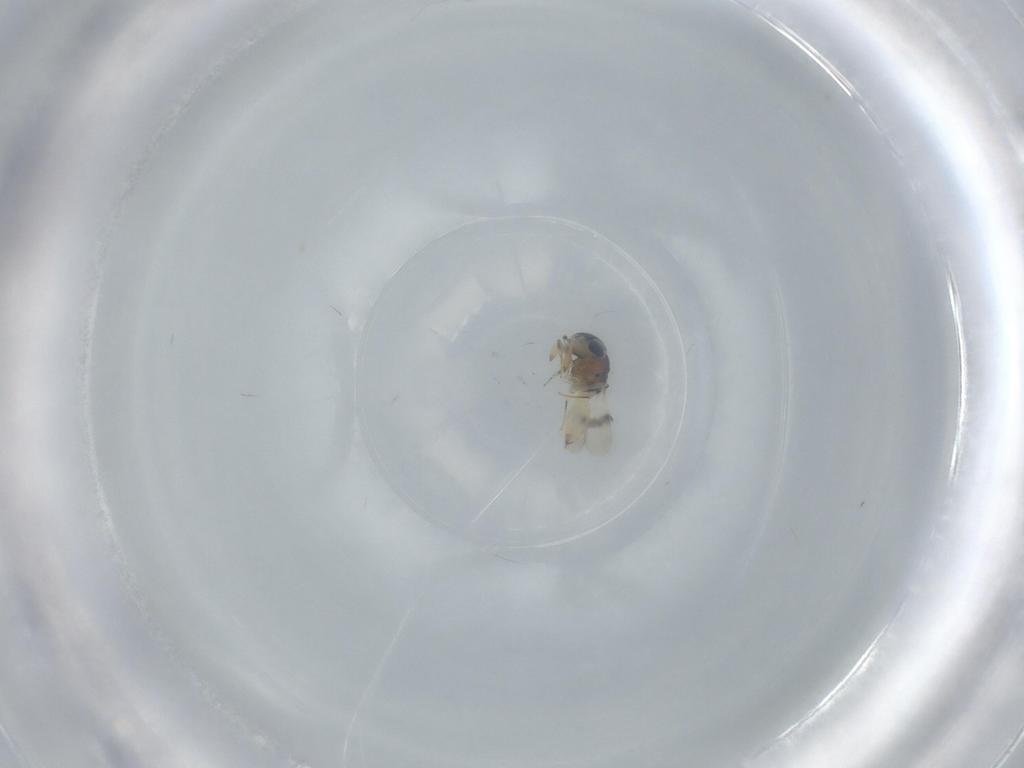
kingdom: Animalia
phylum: Arthropoda
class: Insecta
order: Hymenoptera
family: Scelionidae
